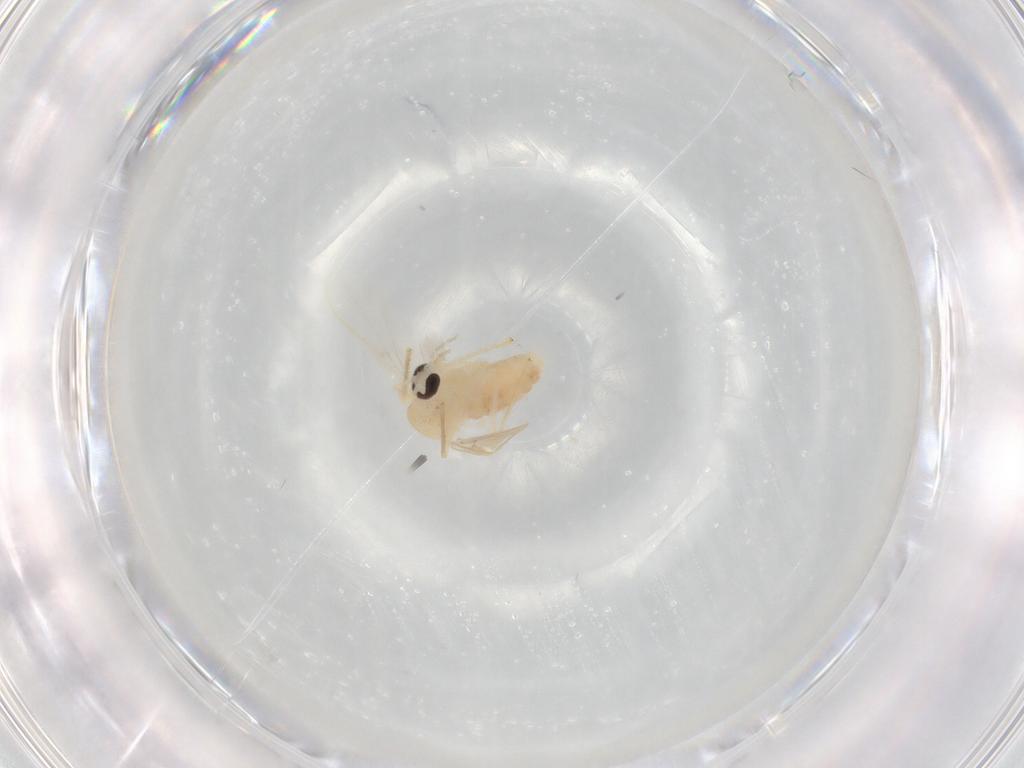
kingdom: Animalia
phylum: Arthropoda
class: Insecta
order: Diptera
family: Chironomidae
